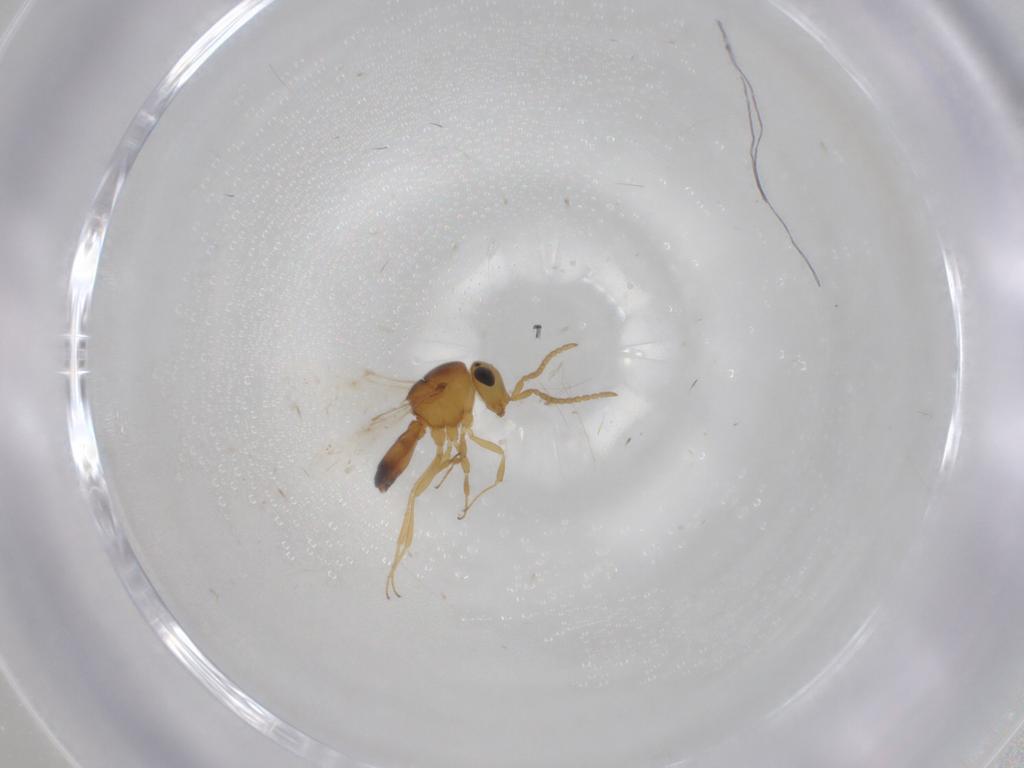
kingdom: Animalia
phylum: Arthropoda
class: Insecta
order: Hymenoptera
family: Scelionidae
